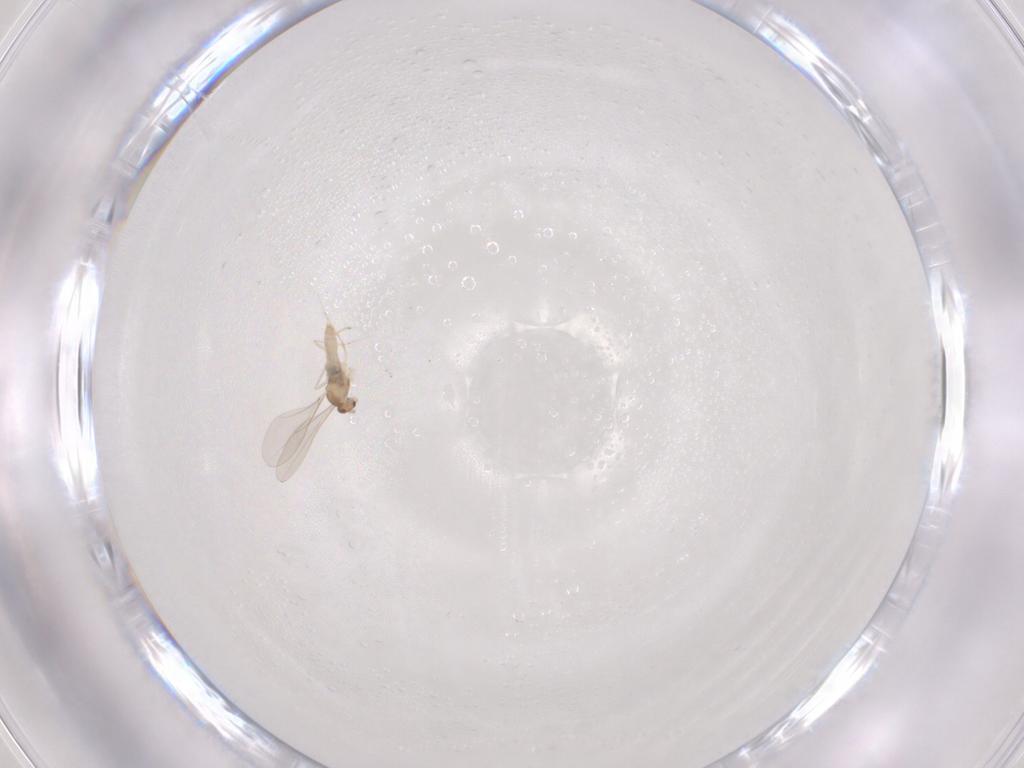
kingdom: Animalia
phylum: Arthropoda
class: Insecta
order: Diptera
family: Cecidomyiidae
